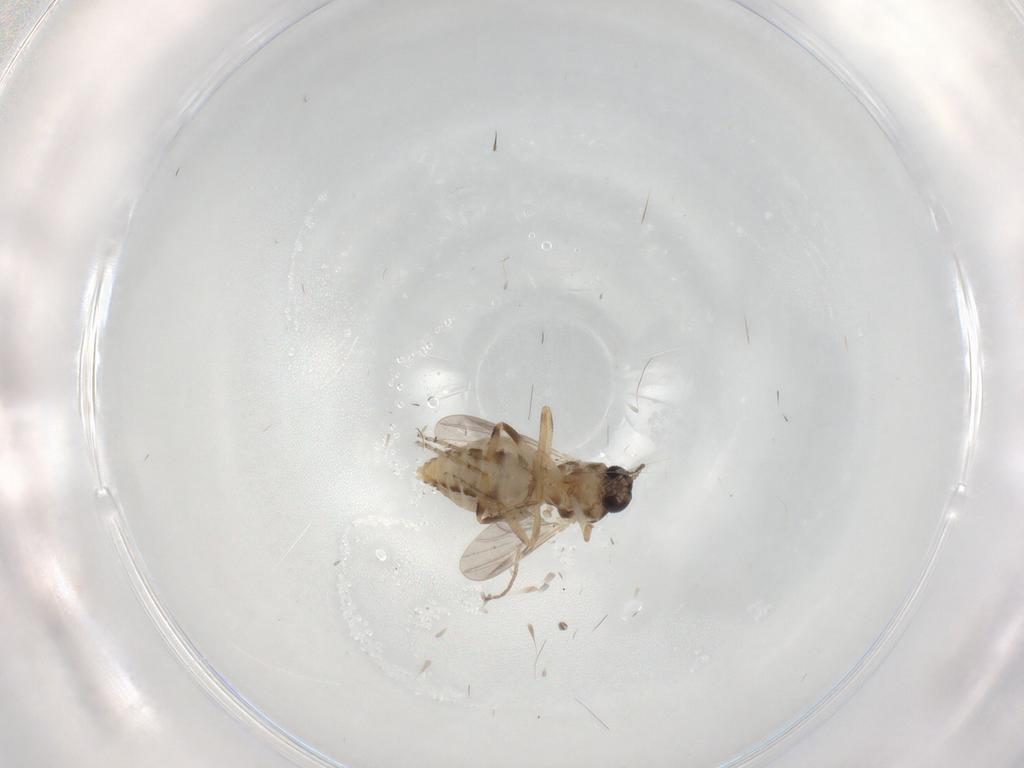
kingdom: Animalia
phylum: Arthropoda
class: Insecta
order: Diptera
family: Ceratopogonidae
